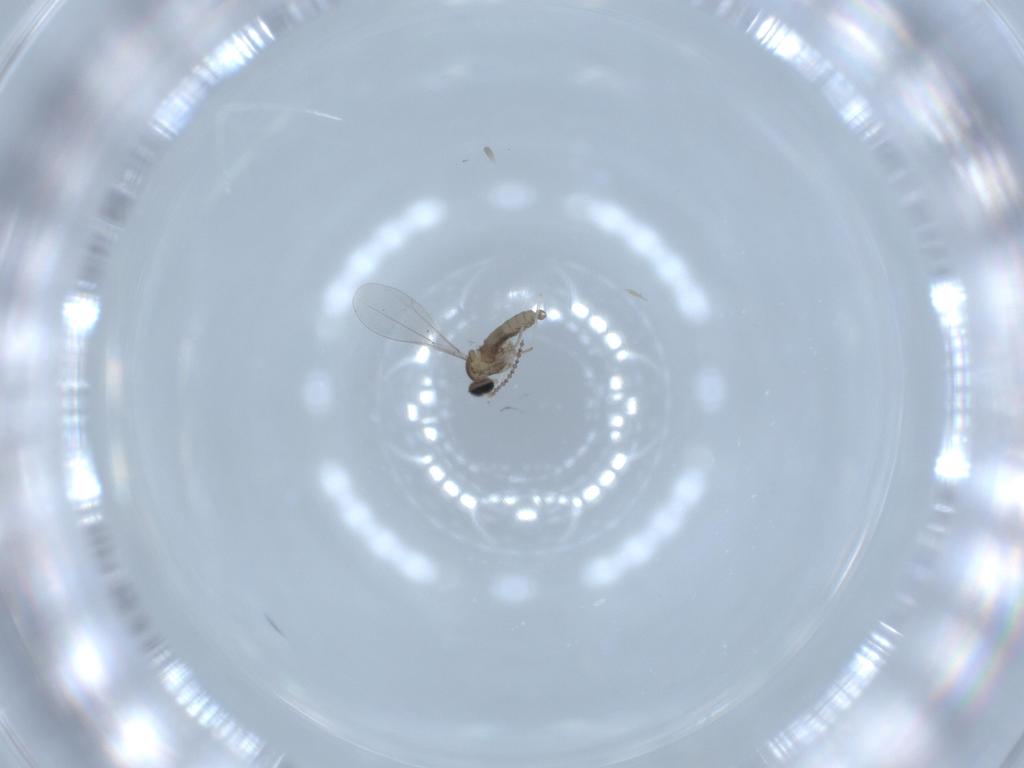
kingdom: Animalia
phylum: Arthropoda
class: Insecta
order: Diptera
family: Cecidomyiidae
